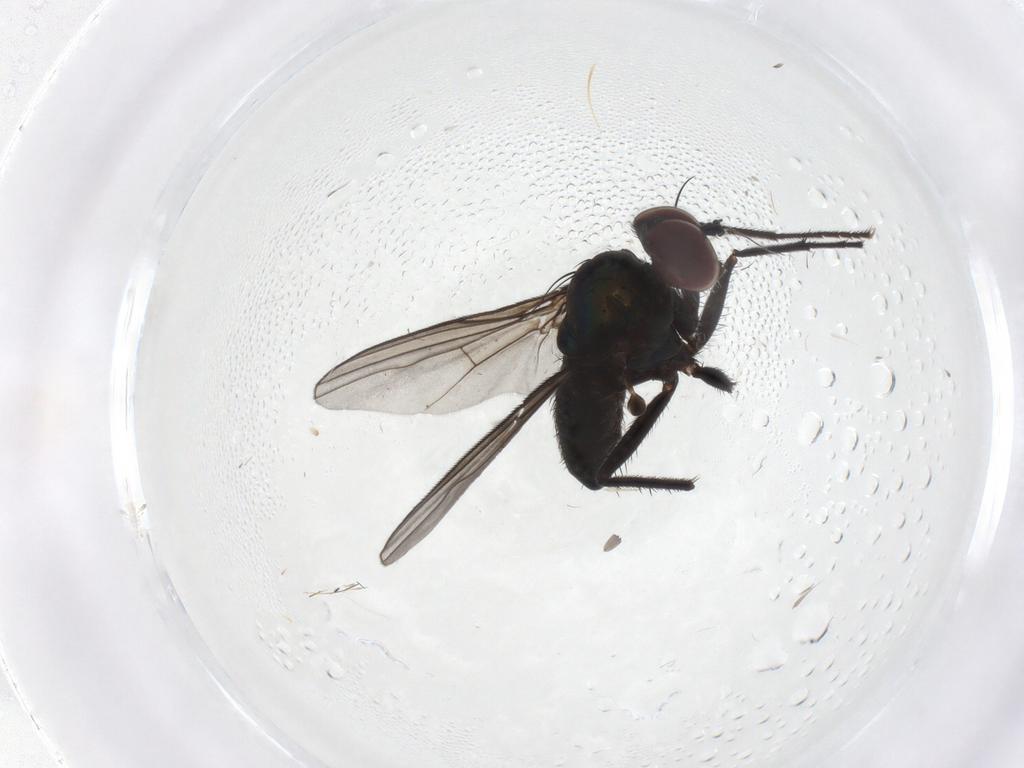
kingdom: Animalia
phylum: Arthropoda
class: Insecta
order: Diptera
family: Dolichopodidae
